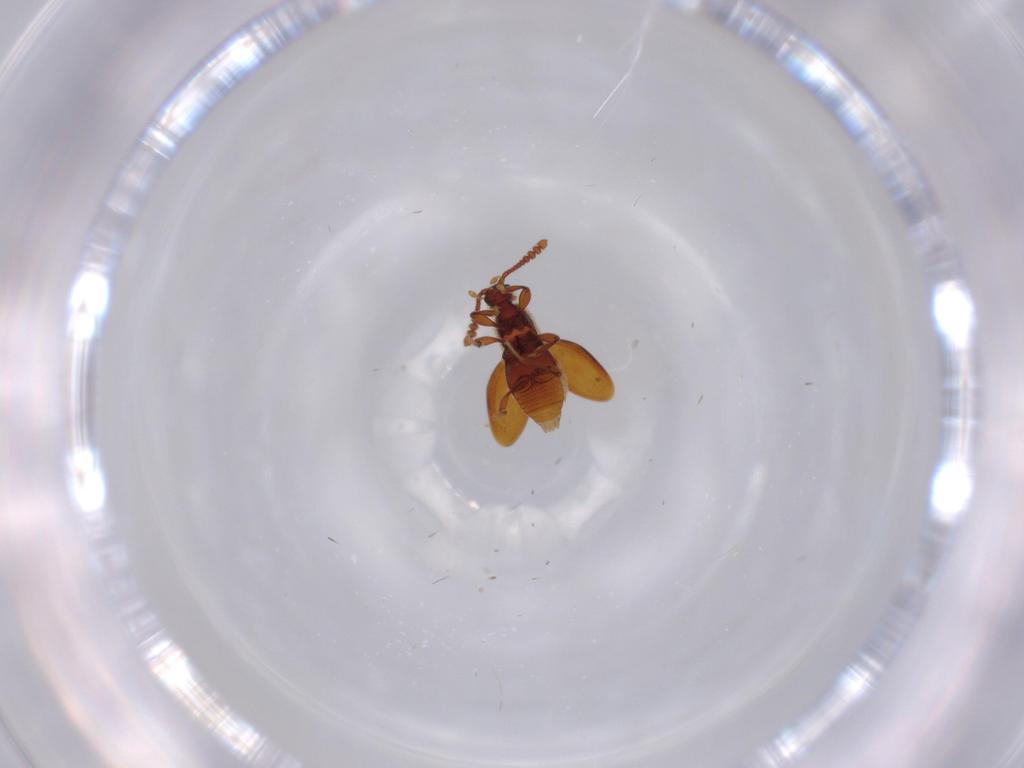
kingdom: Animalia
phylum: Arthropoda
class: Insecta
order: Coleoptera
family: Staphylinidae
